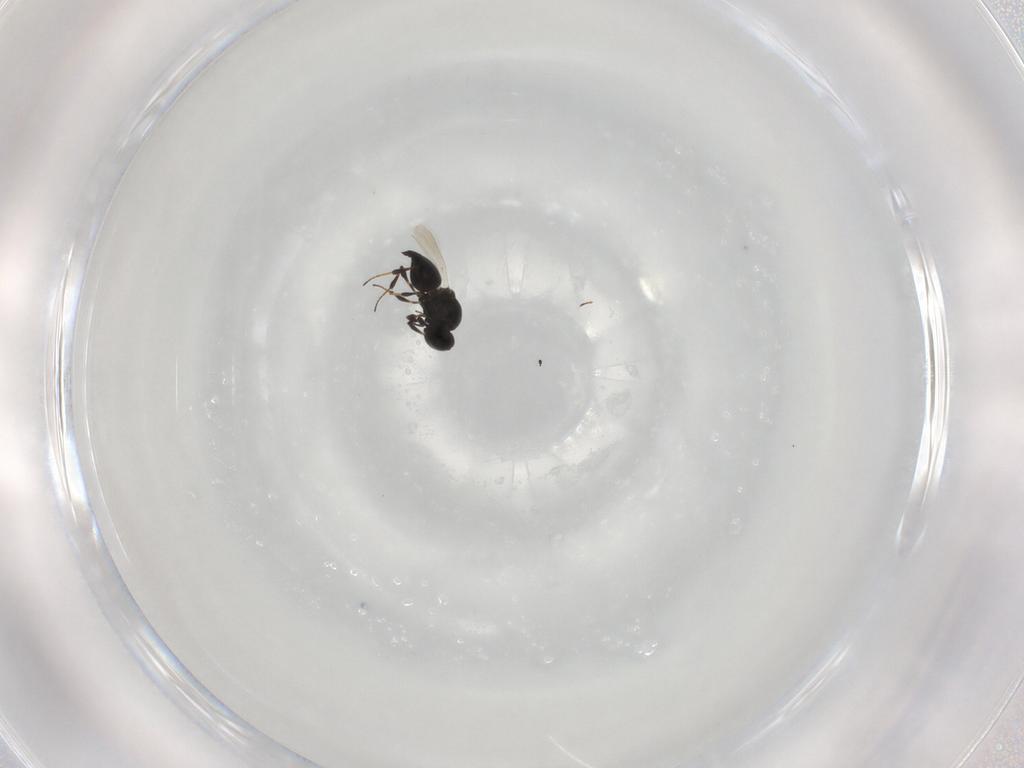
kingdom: Animalia
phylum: Arthropoda
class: Insecta
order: Hymenoptera
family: Platygastridae
